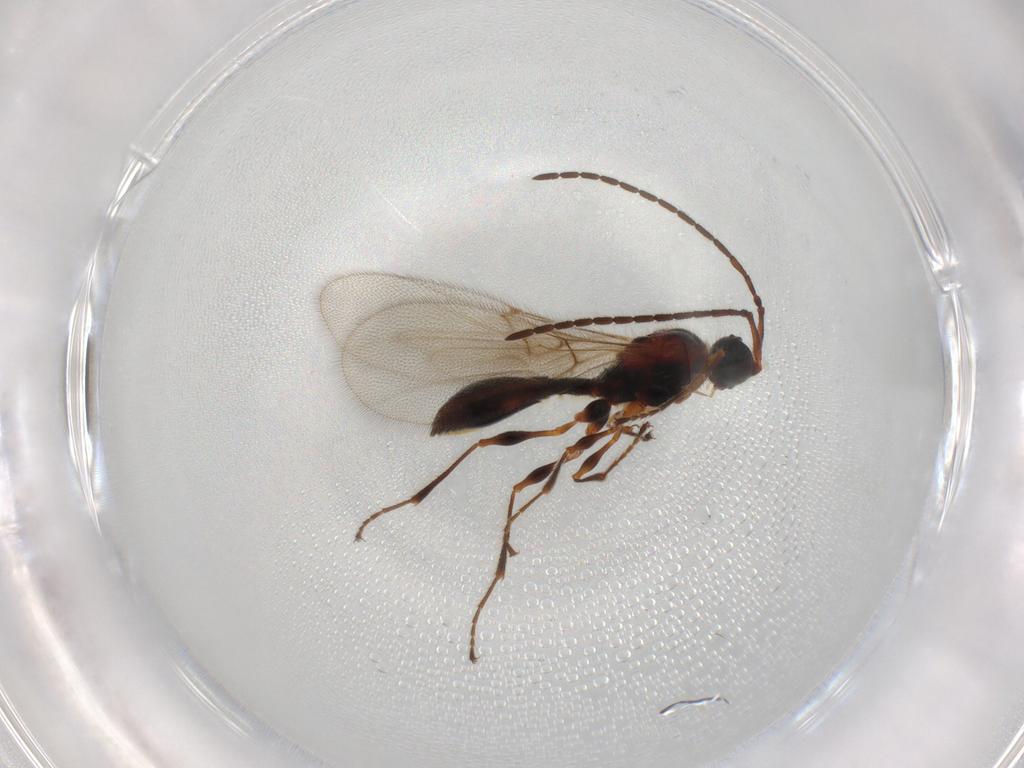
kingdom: Animalia
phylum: Arthropoda
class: Insecta
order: Hymenoptera
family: Diapriidae
